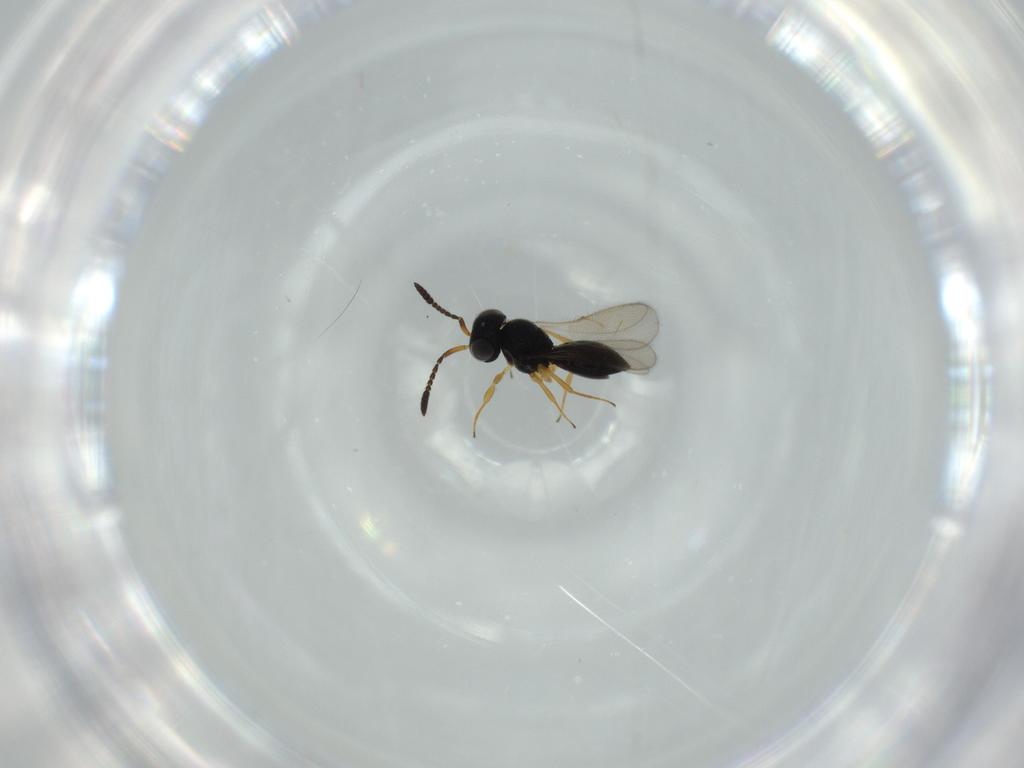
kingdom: Animalia
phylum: Arthropoda
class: Insecta
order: Hymenoptera
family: Scelionidae
